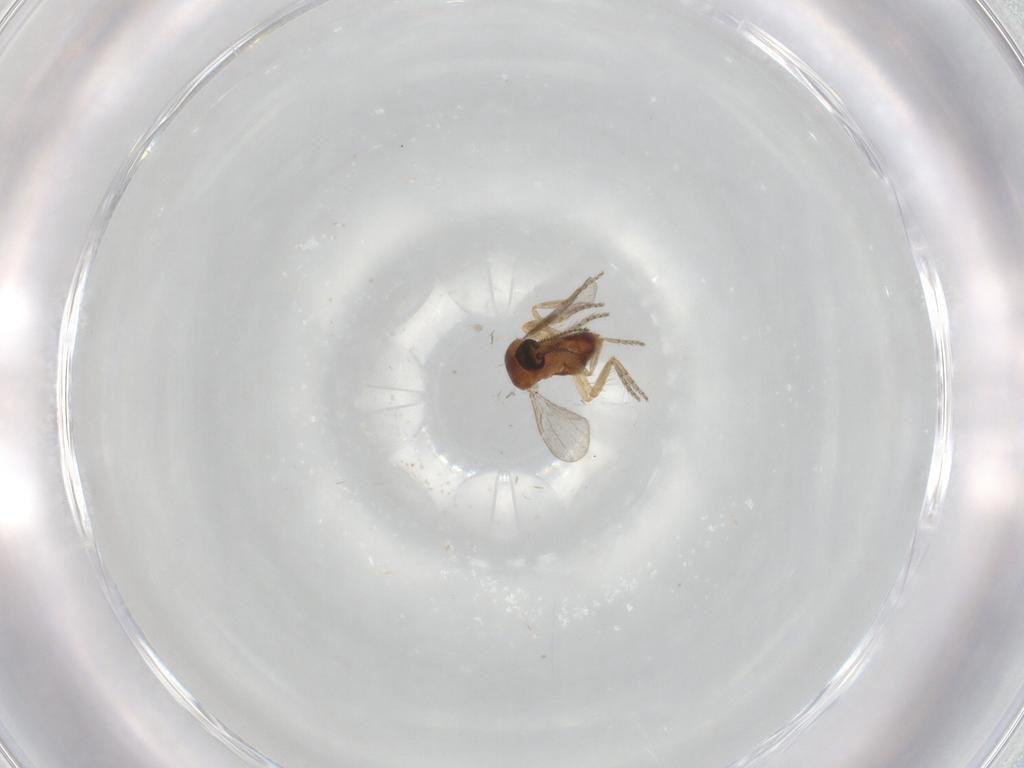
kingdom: Animalia
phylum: Arthropoda
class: Insecta
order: Diptera
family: Ceratopogonidae
